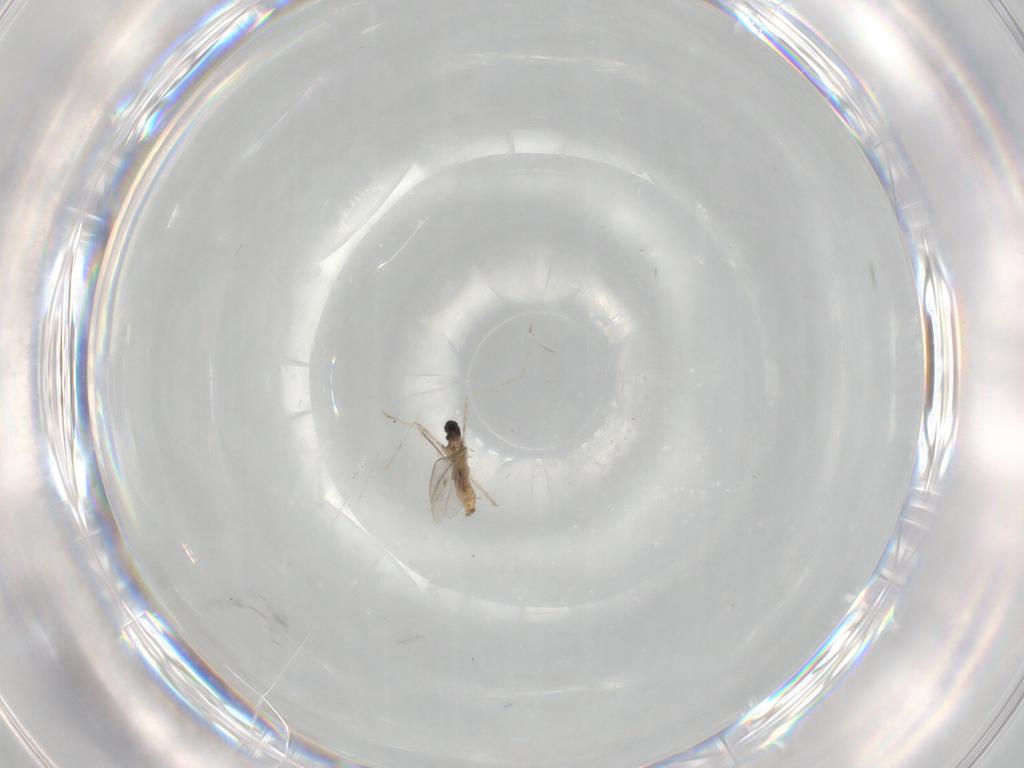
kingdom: Animalia
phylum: Arthropoda
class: Insecta
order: Diptera
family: Cecidomyiidae
